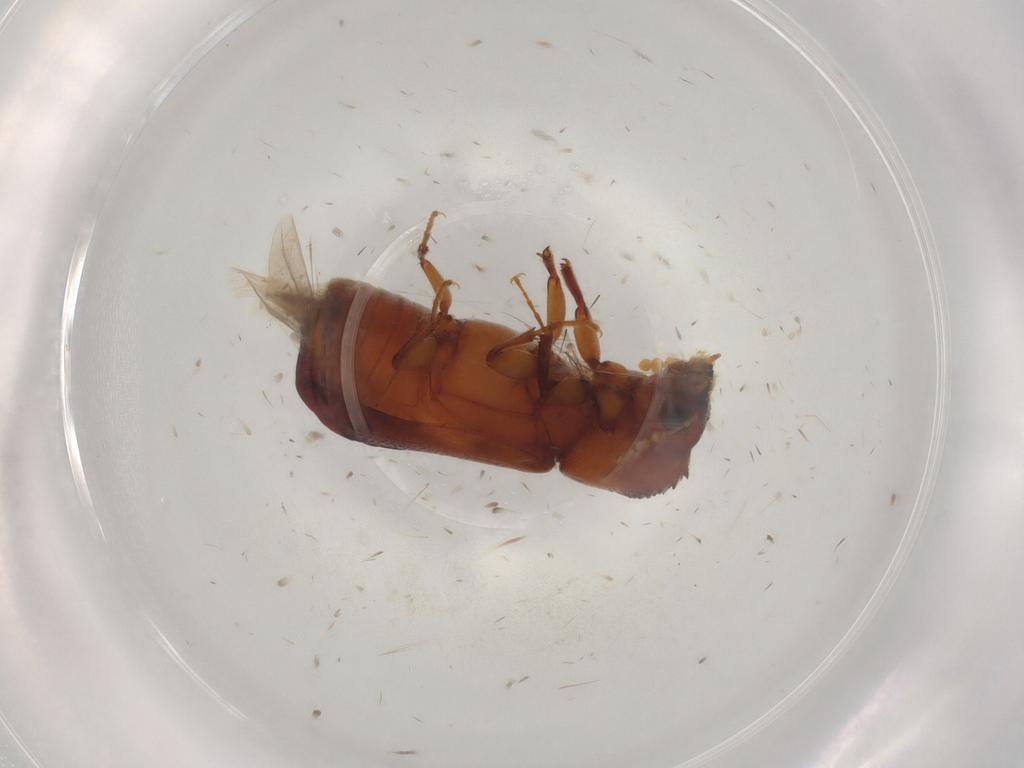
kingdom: Animalia
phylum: Arthropoda
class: Insecta
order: Coleoptera
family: Bostrichidae
